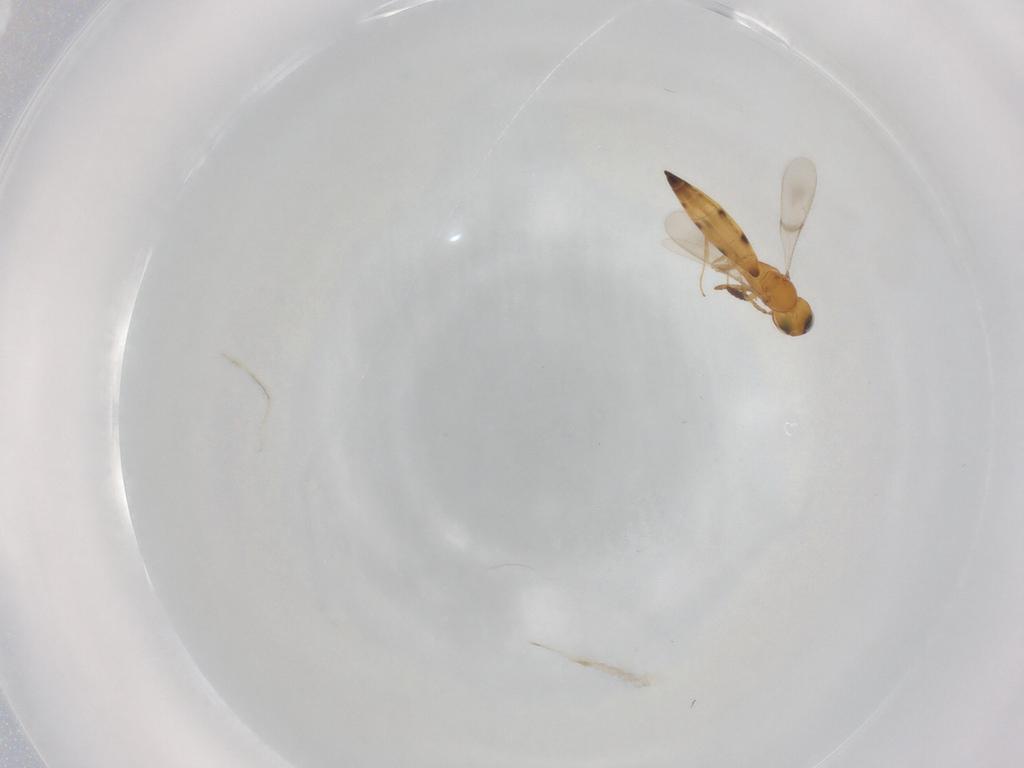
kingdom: Animalia
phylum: Arthropoda
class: Insecta
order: Hymenoptera
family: Scelionidae
